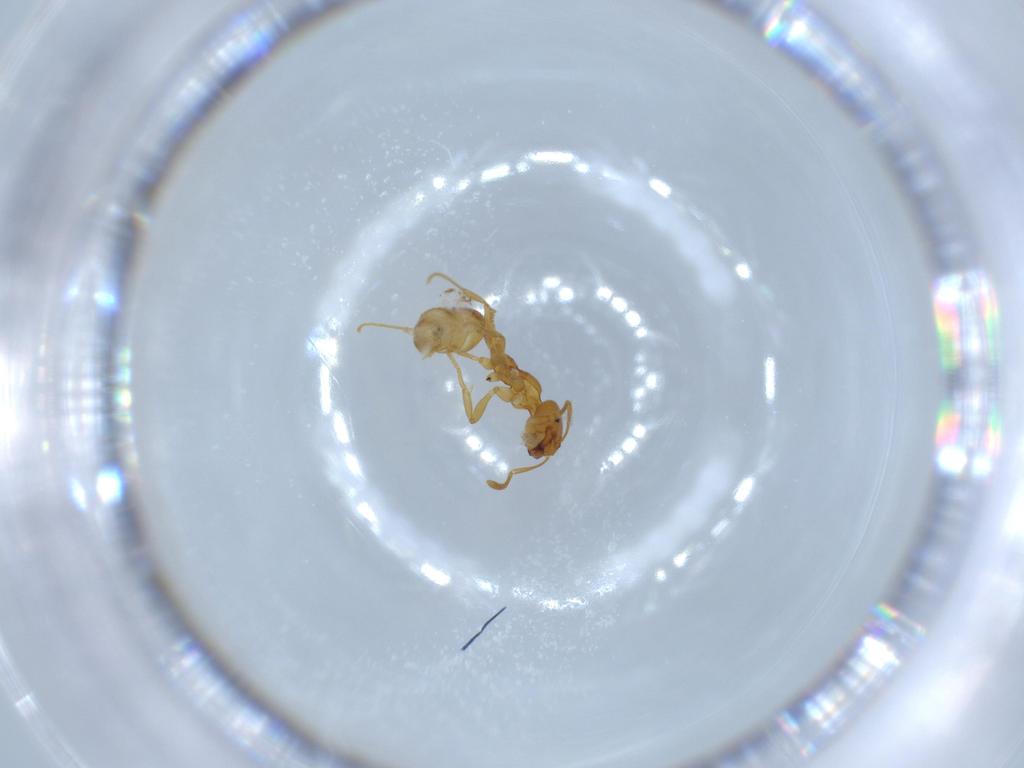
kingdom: Animalia
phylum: Arthropoda
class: Insecta
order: Hymenoptera
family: Formicidae
